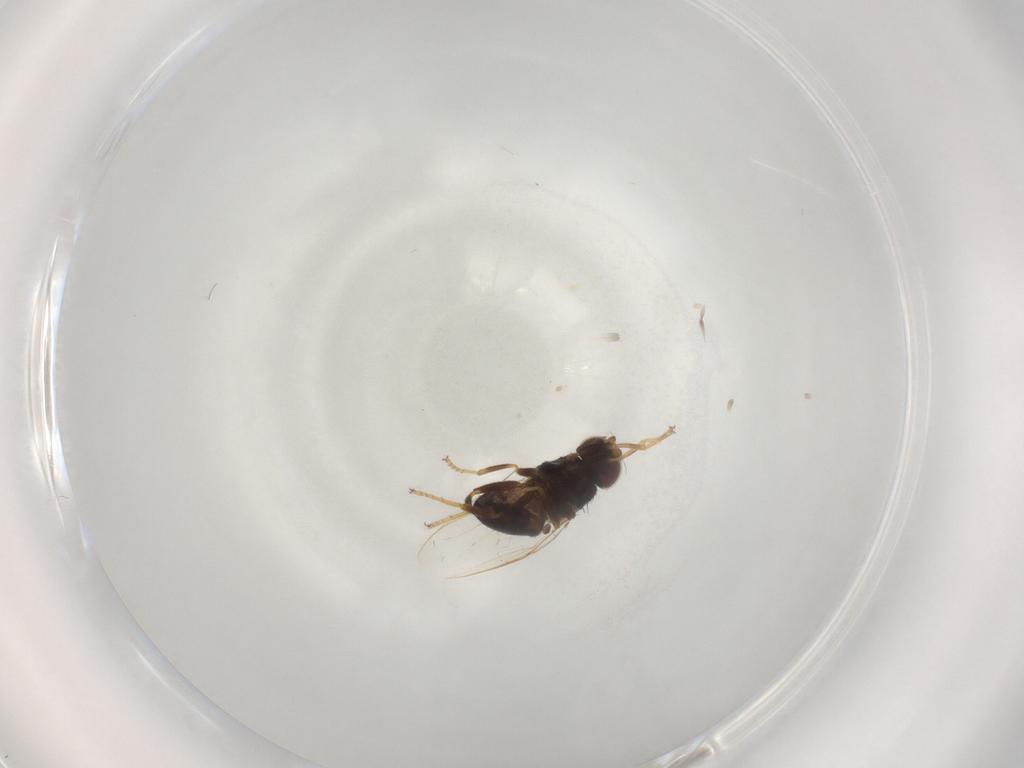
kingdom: Animalia
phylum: Arthropoda
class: Insecta
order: Diptera
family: Chloropidae
